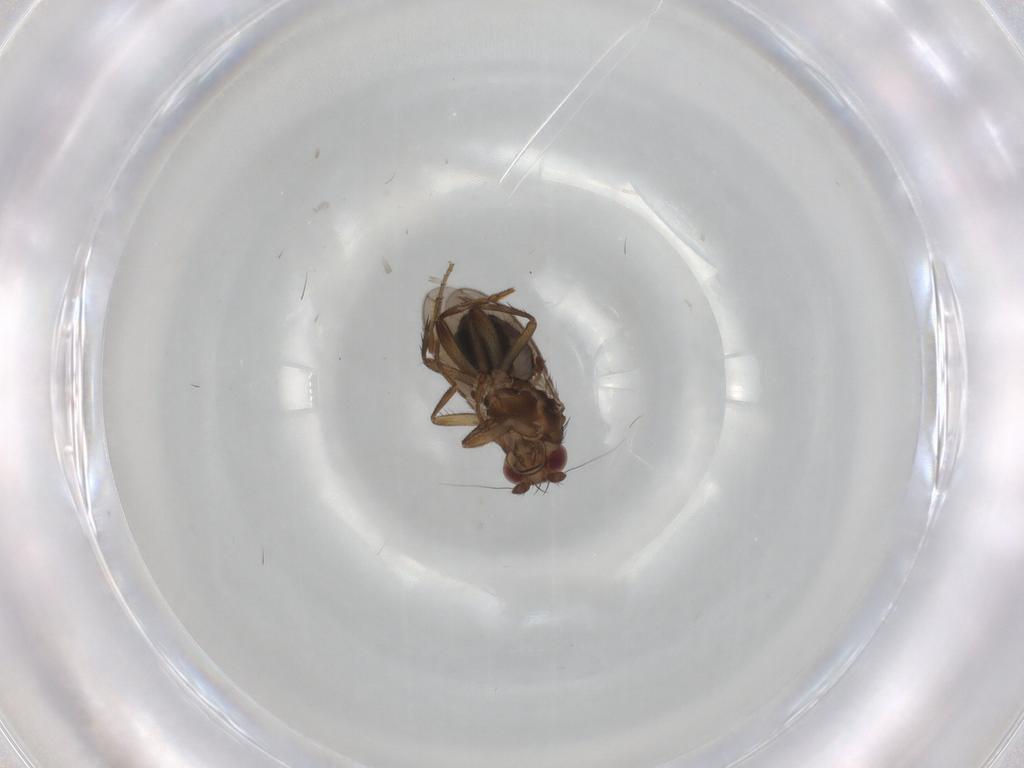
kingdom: Animalia
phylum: Arthropoda
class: Insecta
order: Diptera
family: Sphaeroceridae
